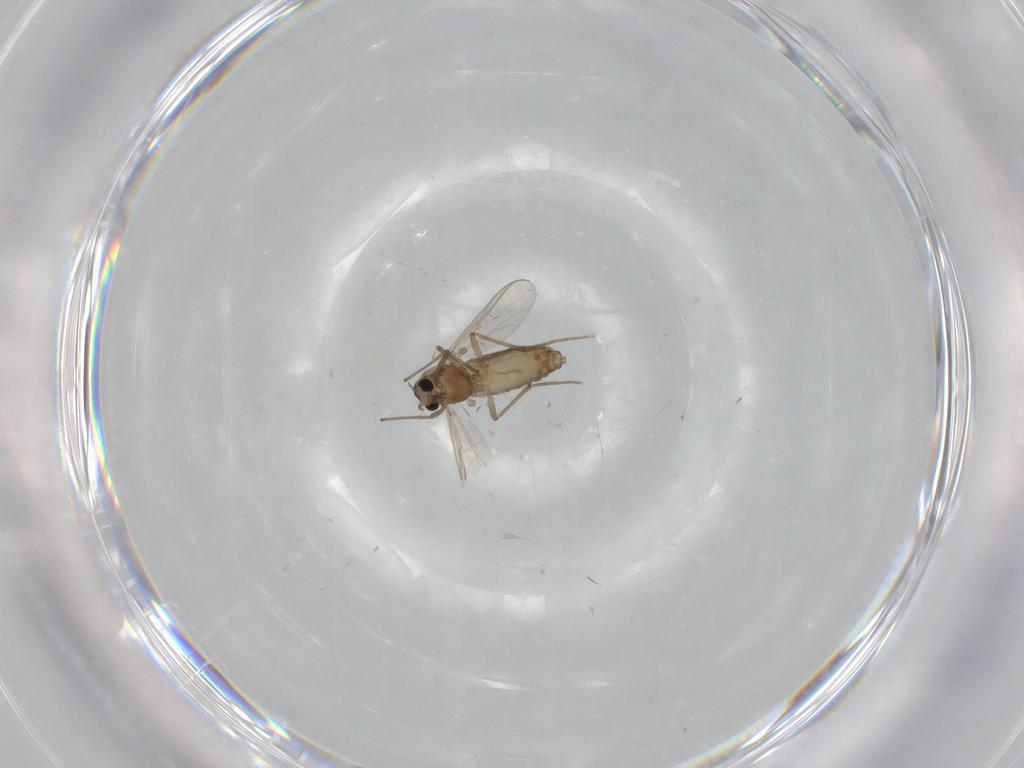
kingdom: Animalia
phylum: Arthropoda
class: Insecta
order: Diptera
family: Chironomidae
